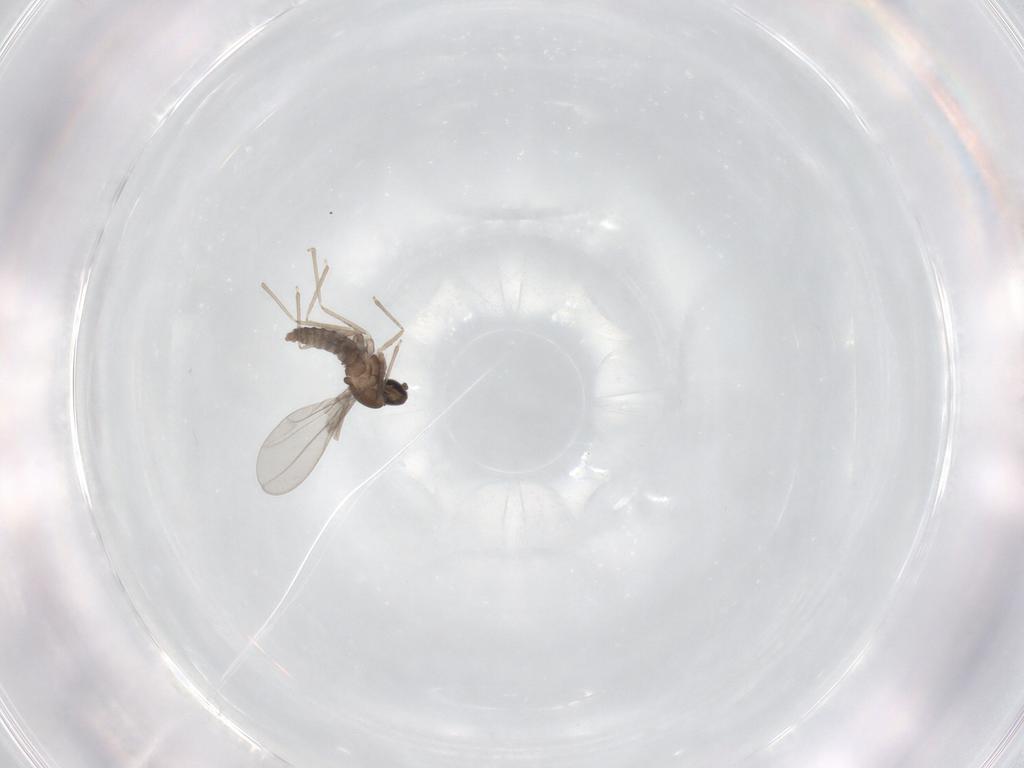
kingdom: Animalia
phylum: Arthropoda
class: Insecta
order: Diptera
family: Cecidomyiidae
